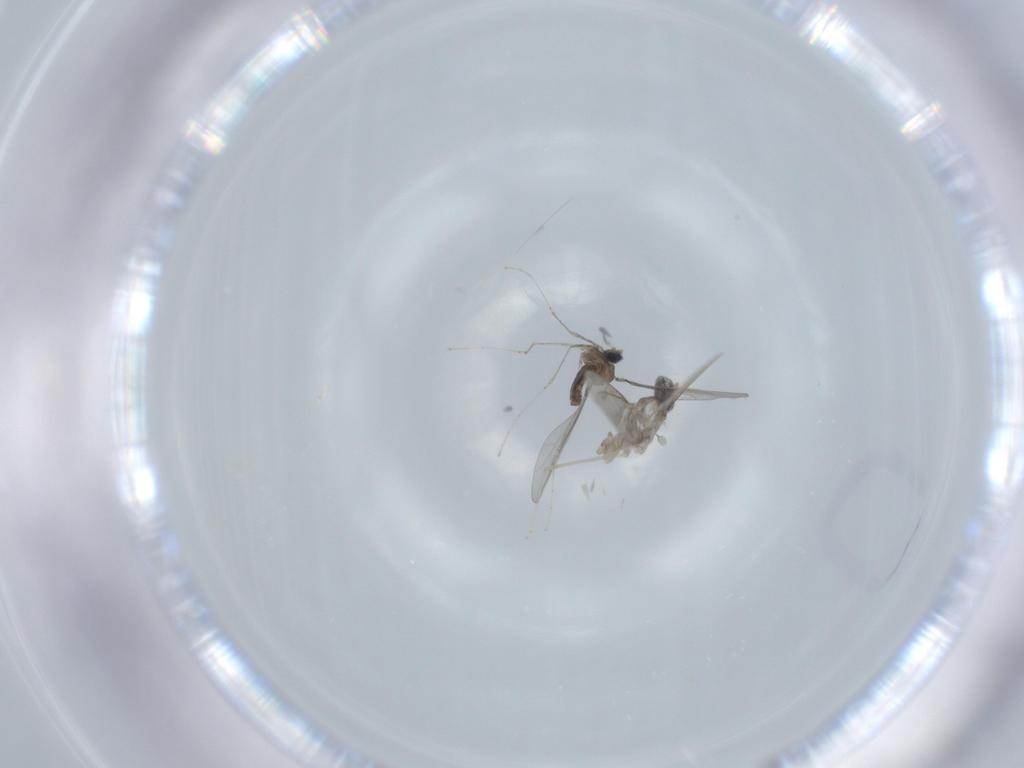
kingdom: Animalia
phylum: Arthropoda
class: Insecta
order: Diptera
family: Cecidomyiidae
